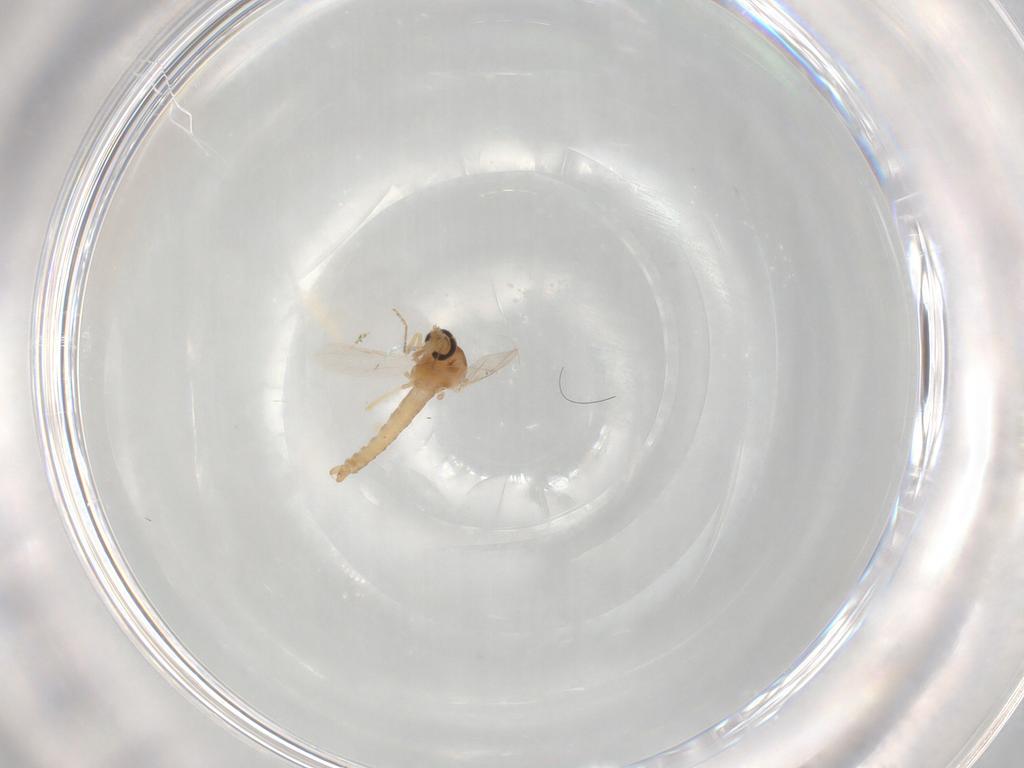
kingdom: Animalia
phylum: Arthropoda
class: Insecta
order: Diptera
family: Ceratopogonidae
